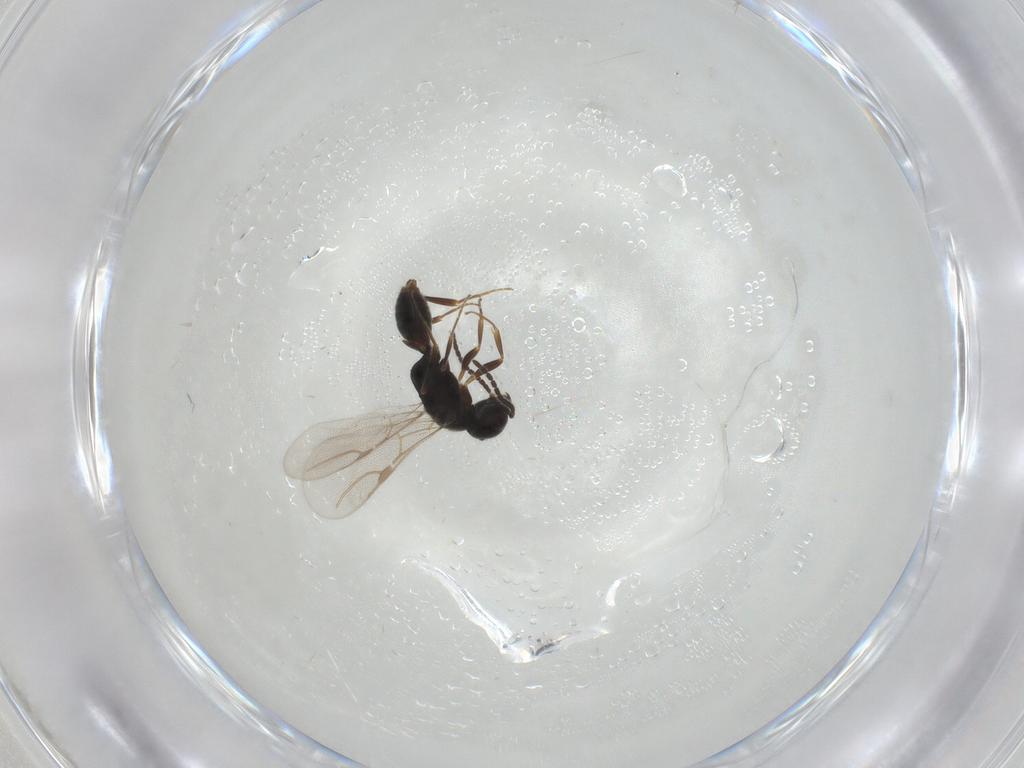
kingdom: Animalia
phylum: Arthropoda
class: Insecta
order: Hymenoptera
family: Bethylidae
